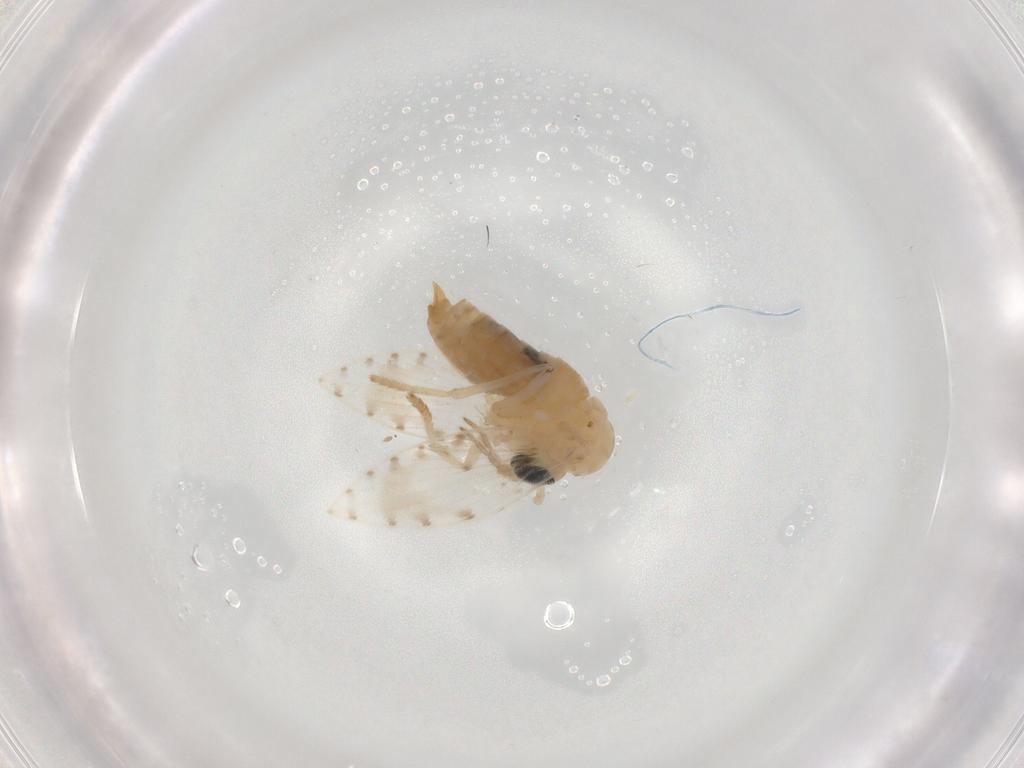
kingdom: Animalia
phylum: Arthropoda
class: Insecta
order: Diptera
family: Psychodidae
